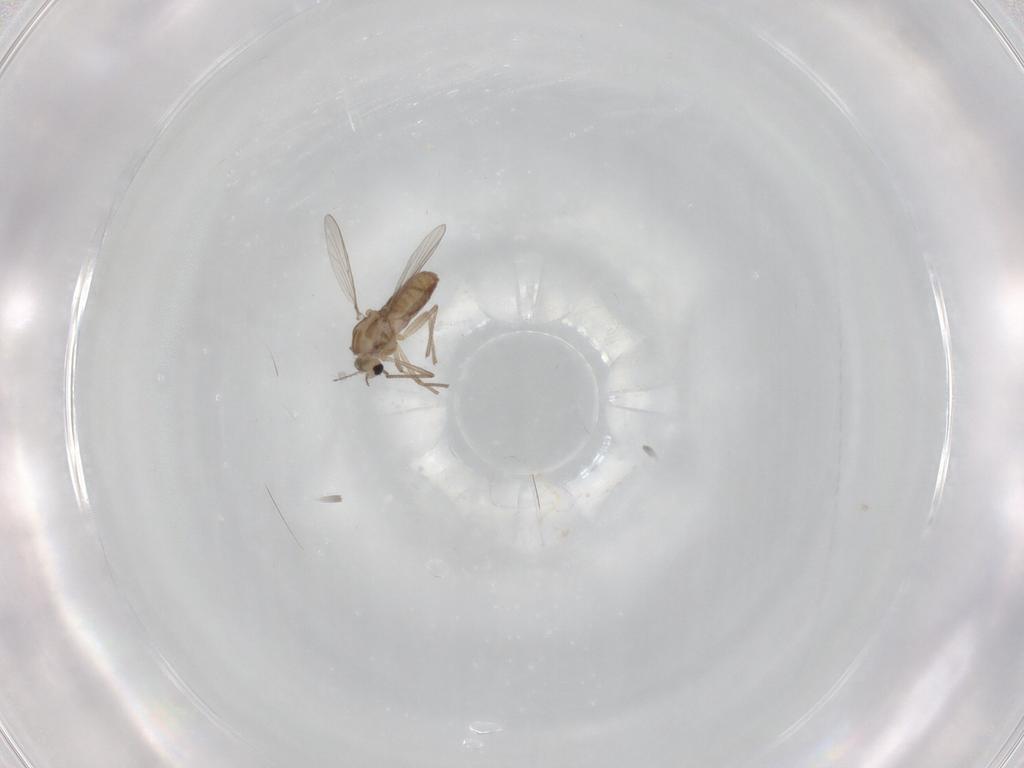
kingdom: Animalia
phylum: Arthropoda
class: Insecta
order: Diptera
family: Chironomidae
